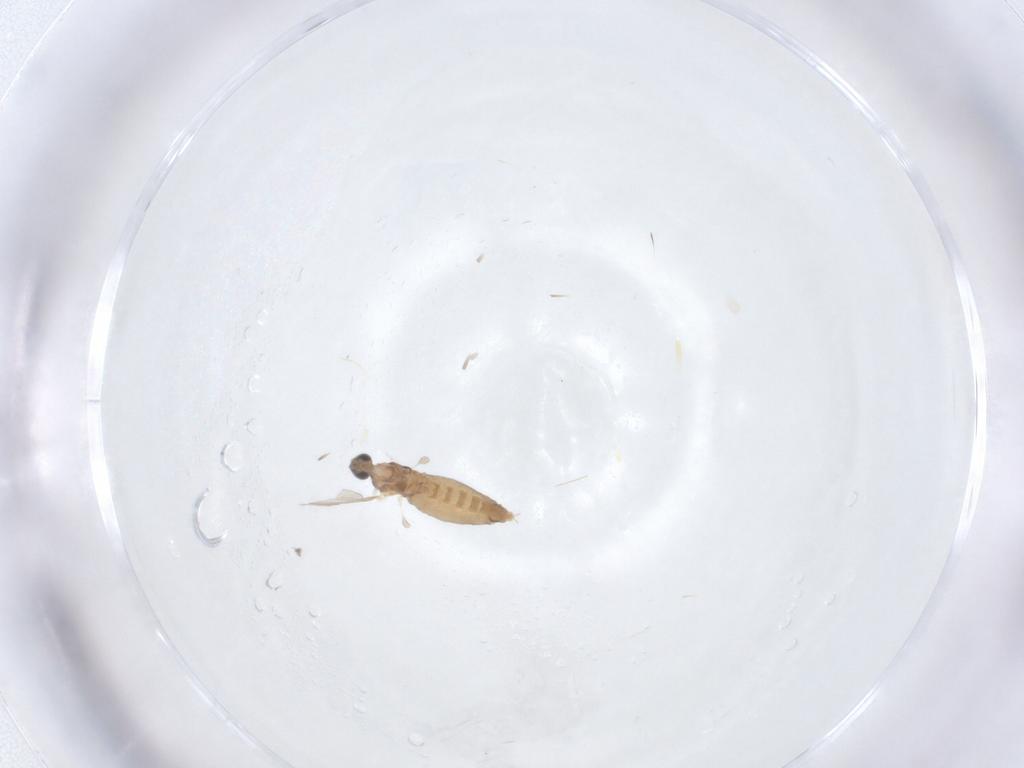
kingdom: Animalia
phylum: Arthropoda
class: Insecta
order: Diptera
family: Cecidomyiidae
